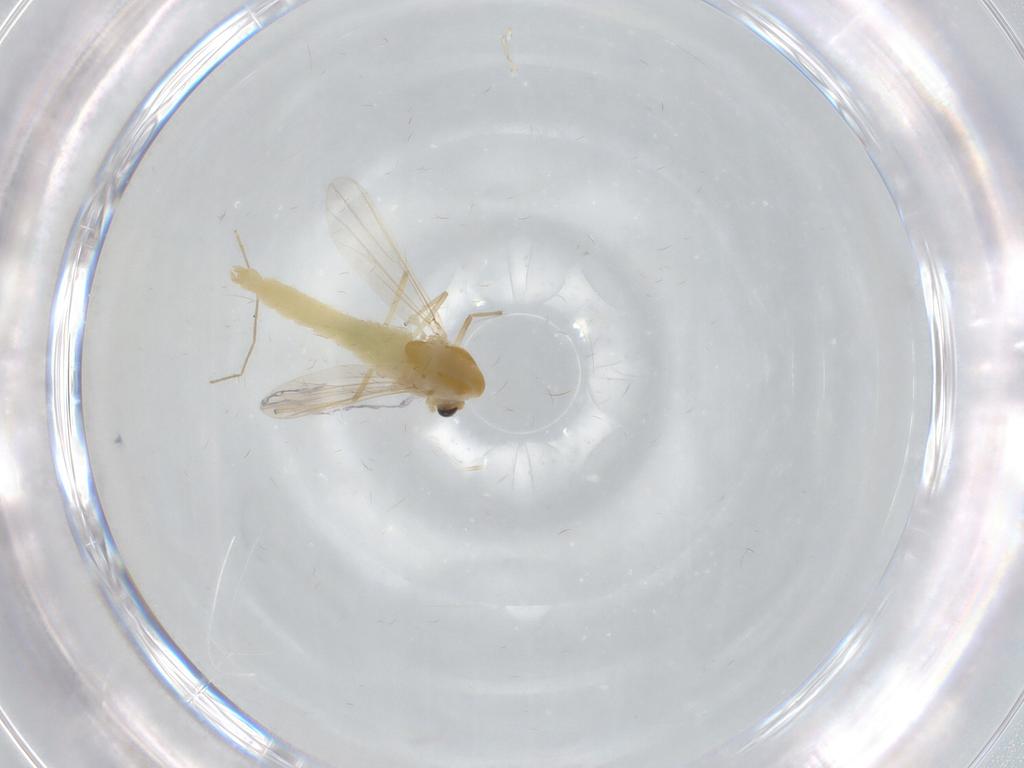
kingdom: Animalia
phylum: Arthropoda
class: Insecta
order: Diptera
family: Chironomidae
